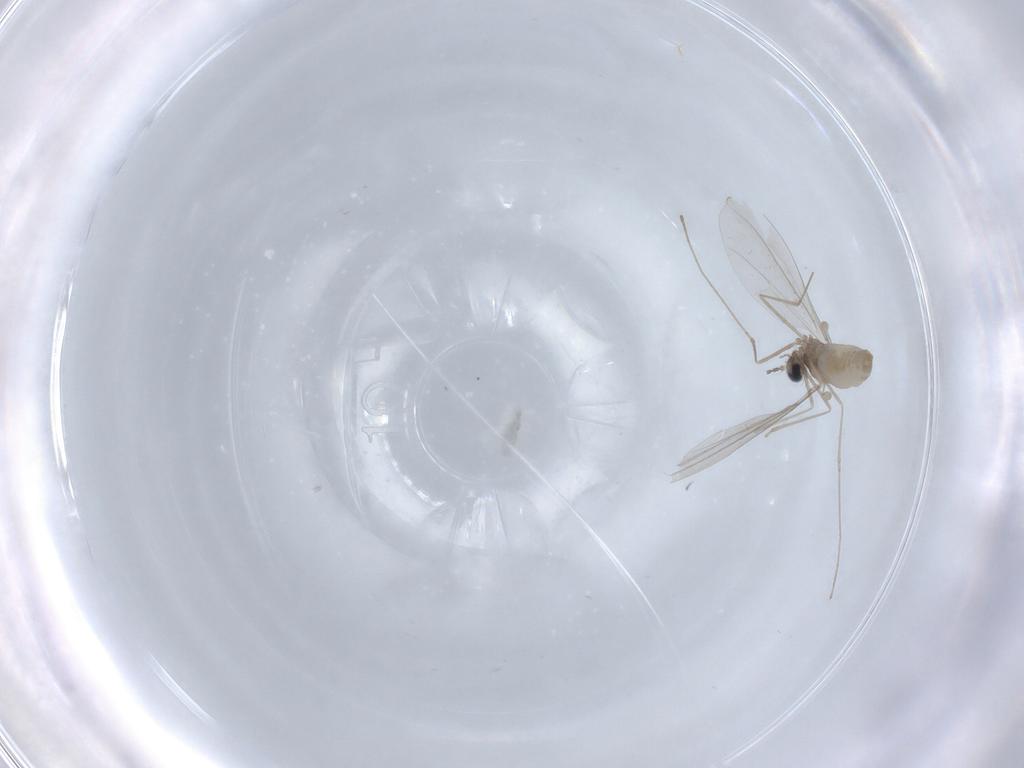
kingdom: Animalia
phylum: Arthropoda
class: Insecta
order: Diptera
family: Cecidomyiidae
